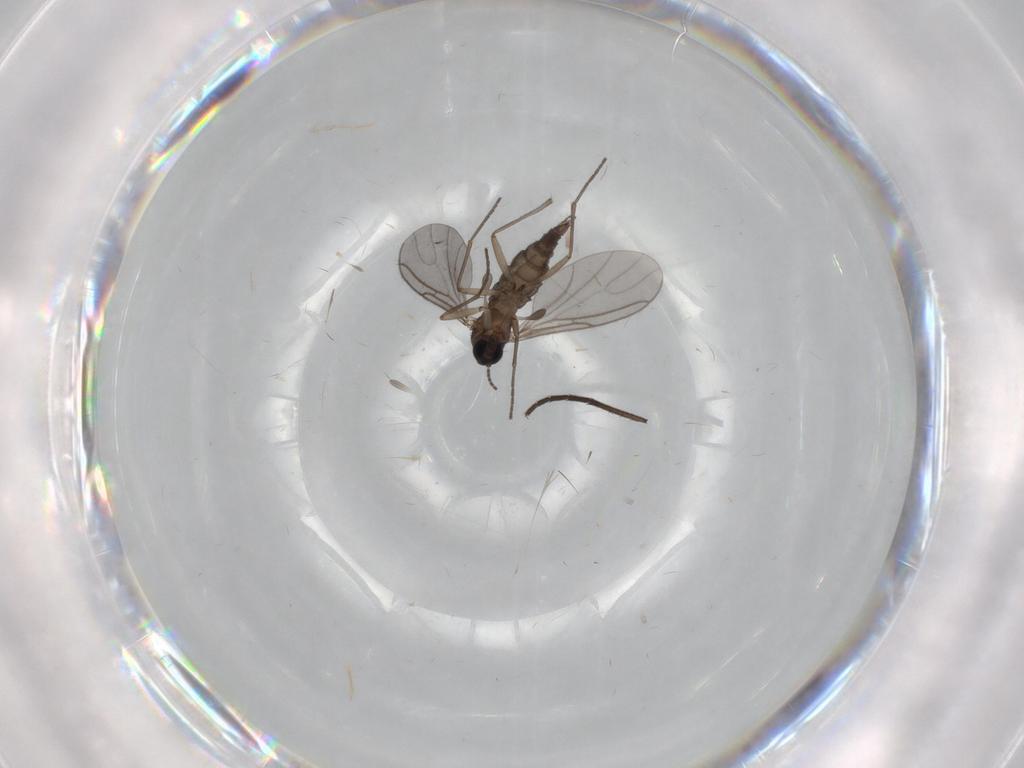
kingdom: Animalia
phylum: Arthropoda
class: Insecta
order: Diptera
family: Sciaridae
